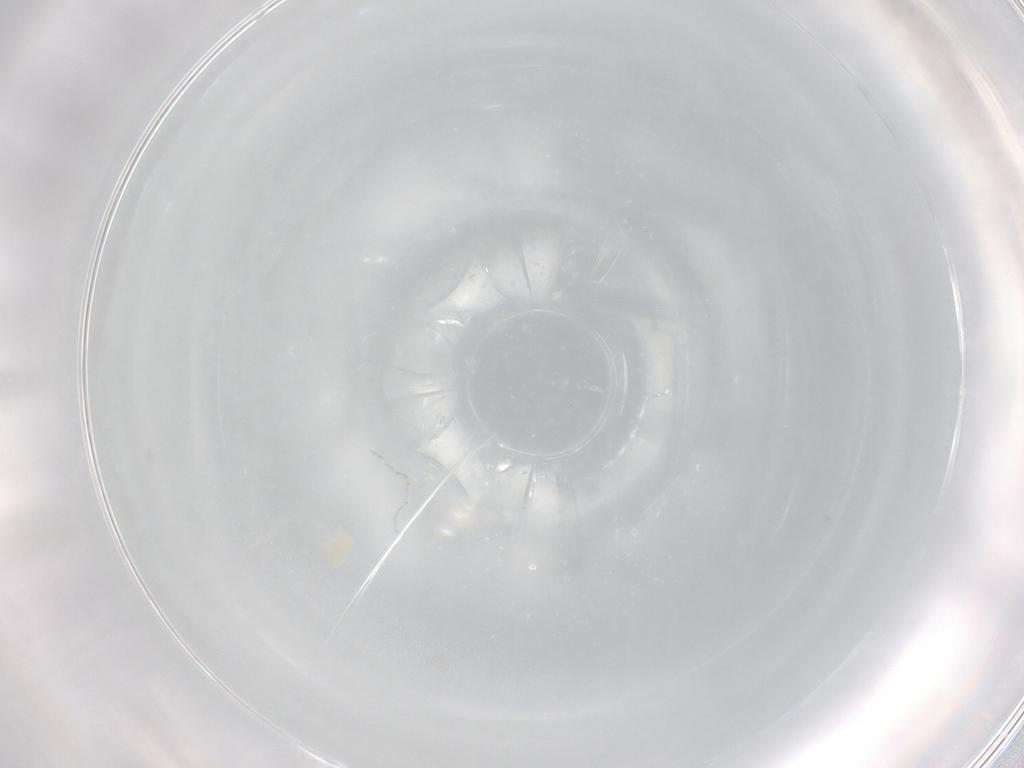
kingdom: Animalia
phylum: Arthropoda
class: Arachnida
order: Trombidiformes
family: Eupodidae
